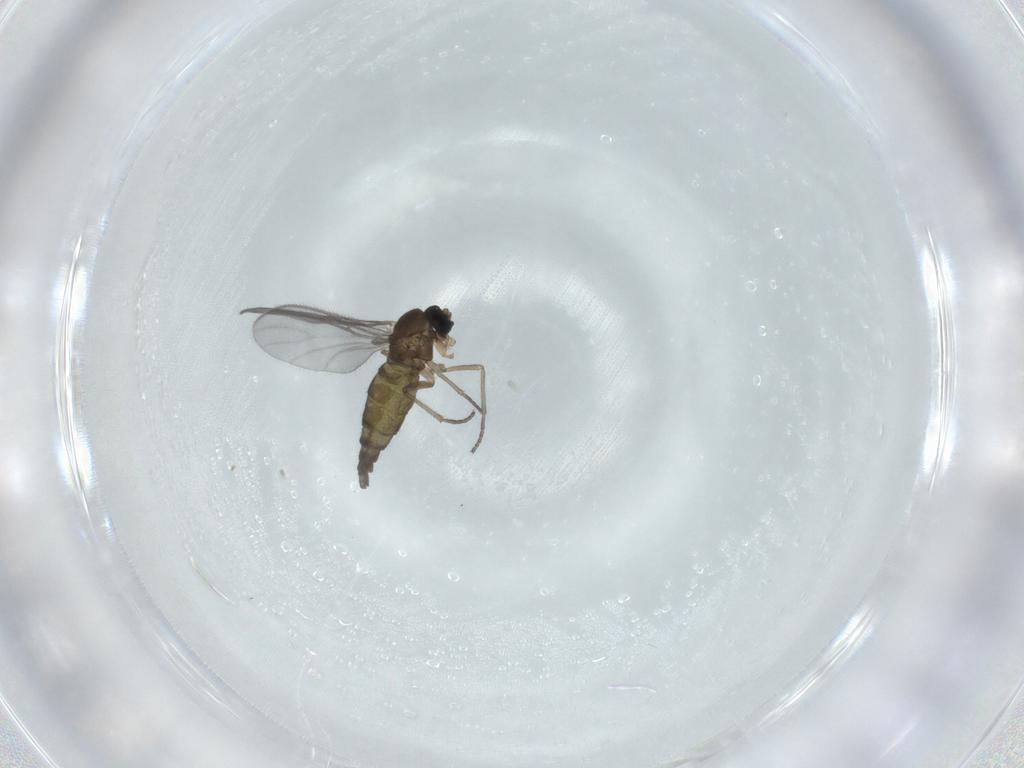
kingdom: Animalia
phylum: Arthropoda
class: Insecta
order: Diptera
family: Sciaridae
